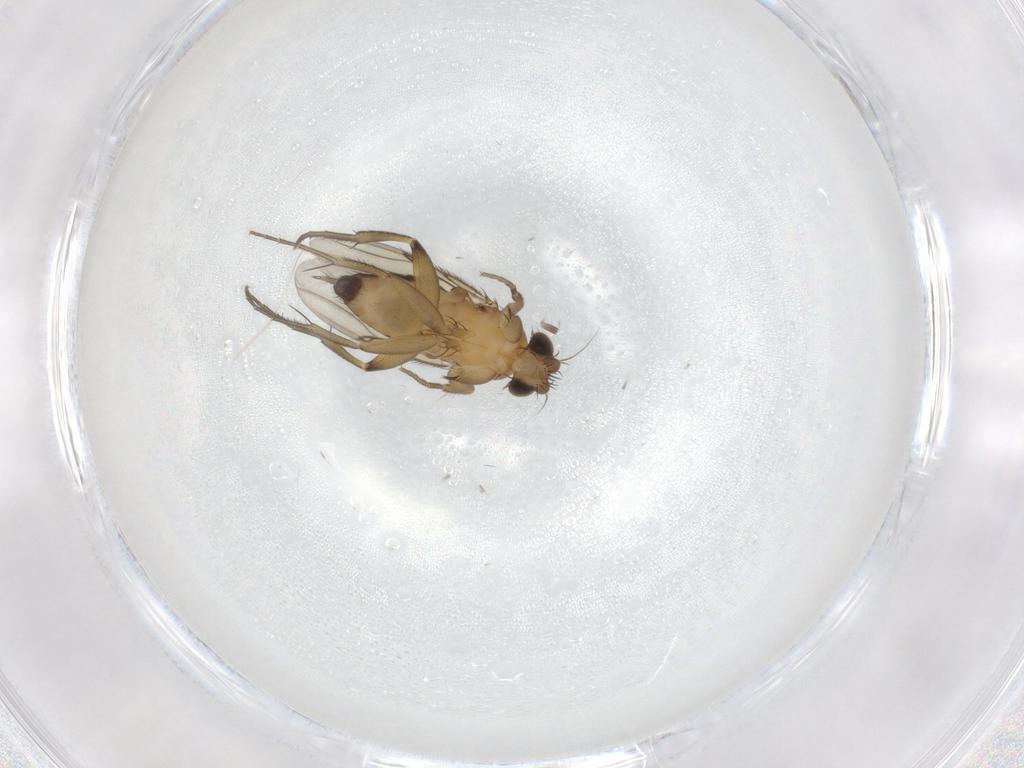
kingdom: Animalia
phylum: Arthropoda
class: Insecta
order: Diptera
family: Phoridae
